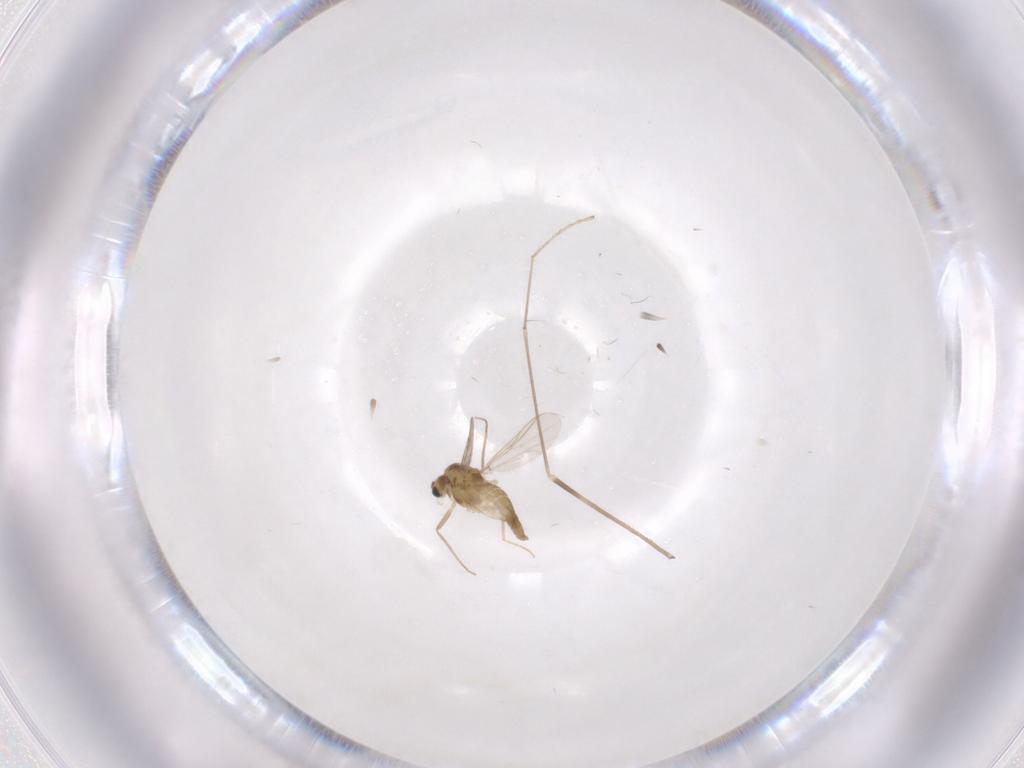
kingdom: Animalia
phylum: Arthropoda
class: Insecta
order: Diptera
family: Chironomidae
